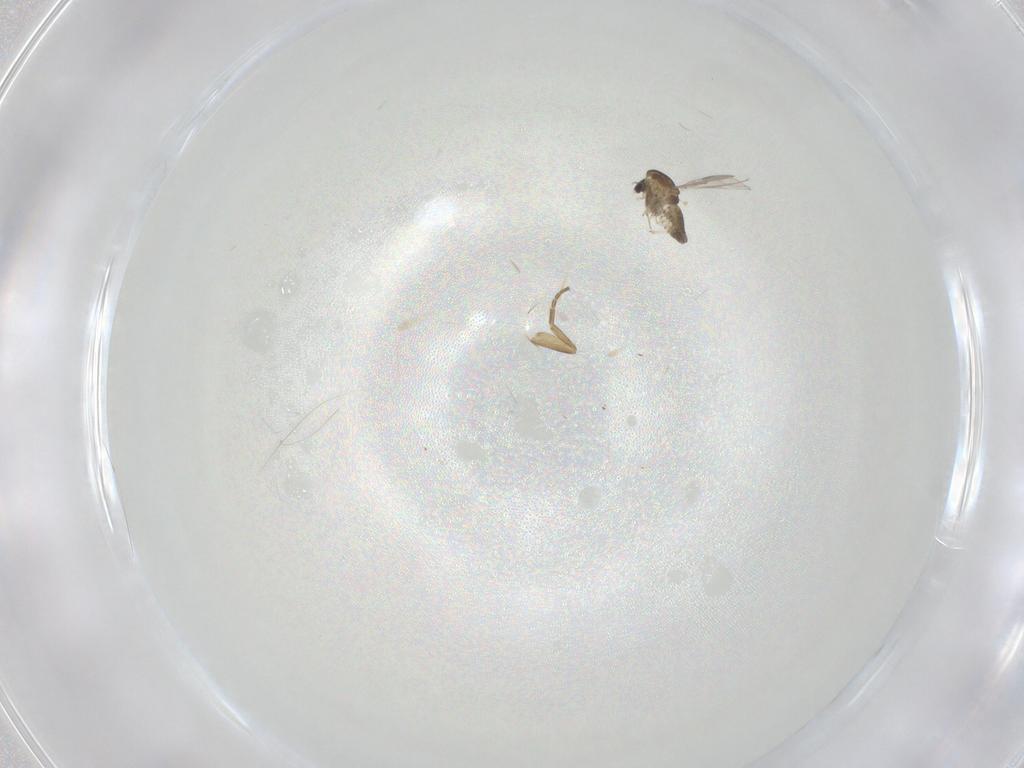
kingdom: Animalia
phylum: Arthropoda
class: Insecta
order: Diptera
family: Chironomidae
